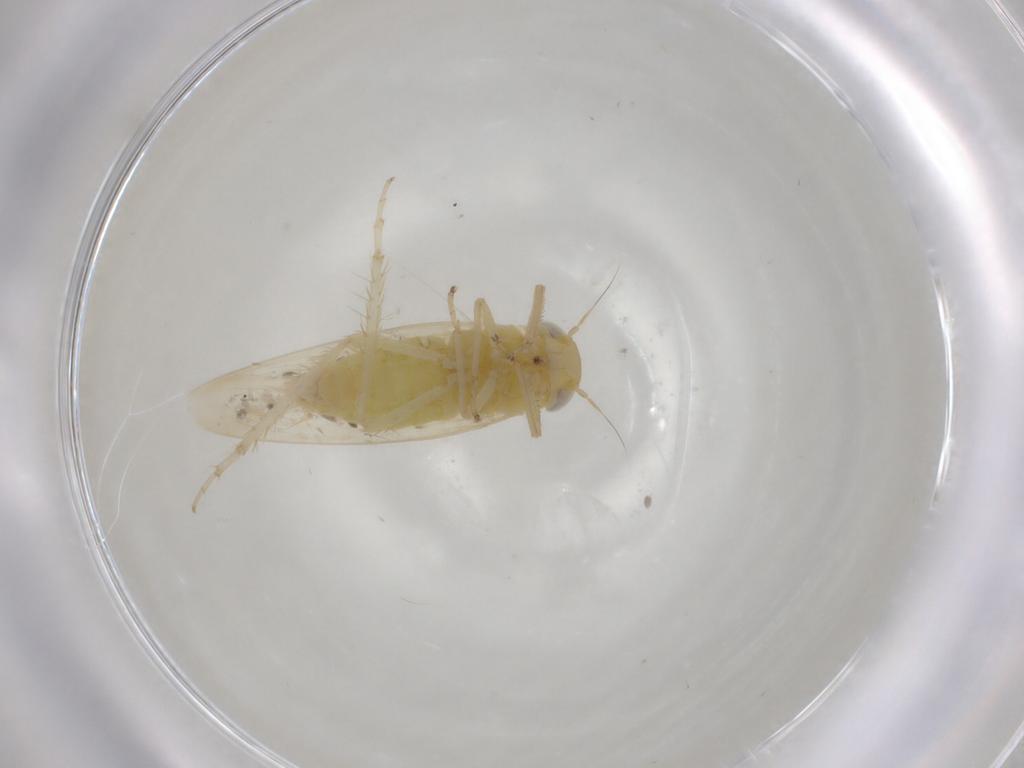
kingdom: Animalia
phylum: Arthropoda
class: Insecta
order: Hemiptera
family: Cicadellidae
